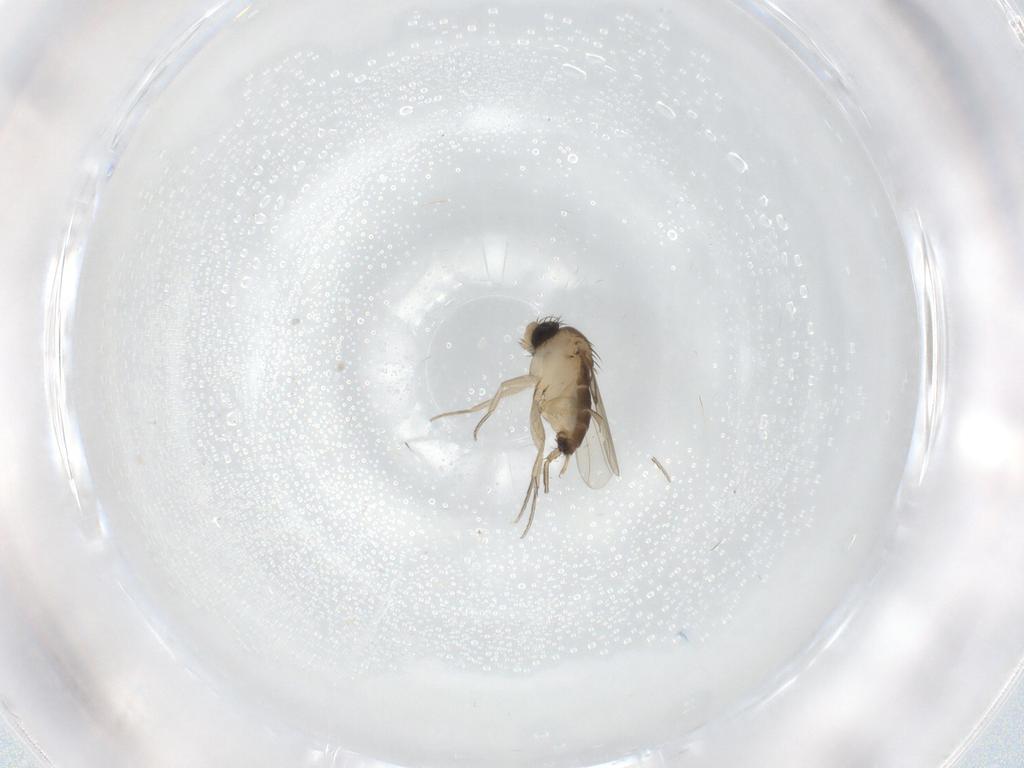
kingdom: Animalia
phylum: Arthropoda
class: Insecta
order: Diptera
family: Phoridae
